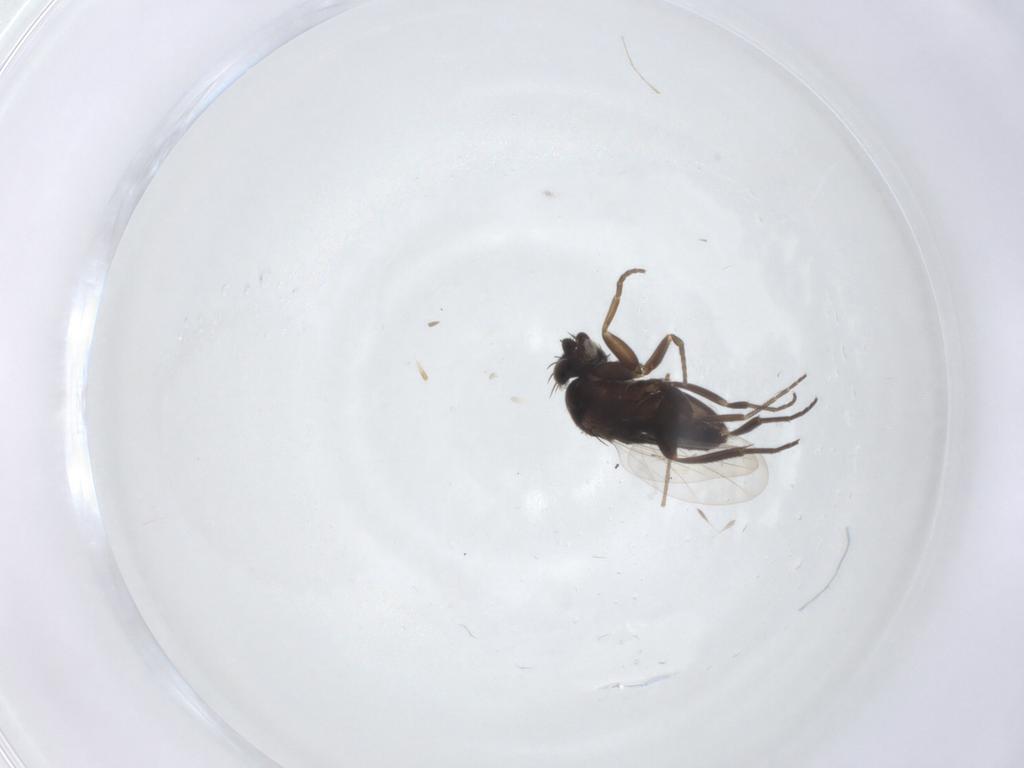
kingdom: Animalia
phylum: Arthropoda
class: Insecta
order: Diptera
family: Phoridae
